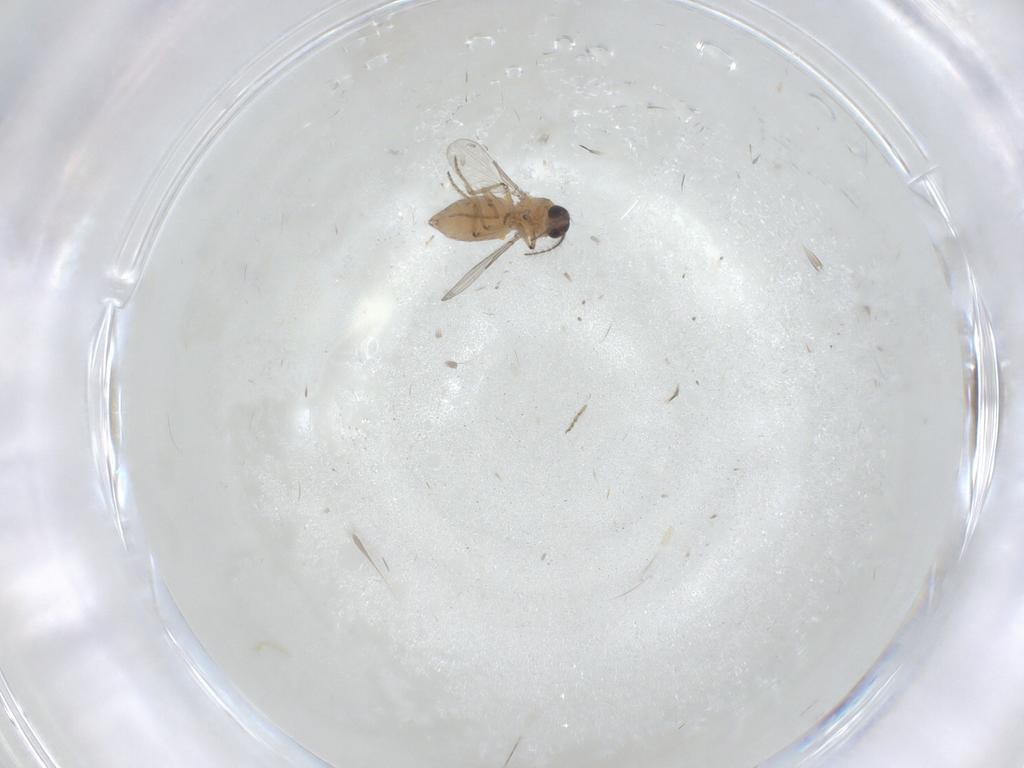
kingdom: Animalia
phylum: Arthropoda
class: Insecta
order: Diptera
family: Ceratopogonidae
